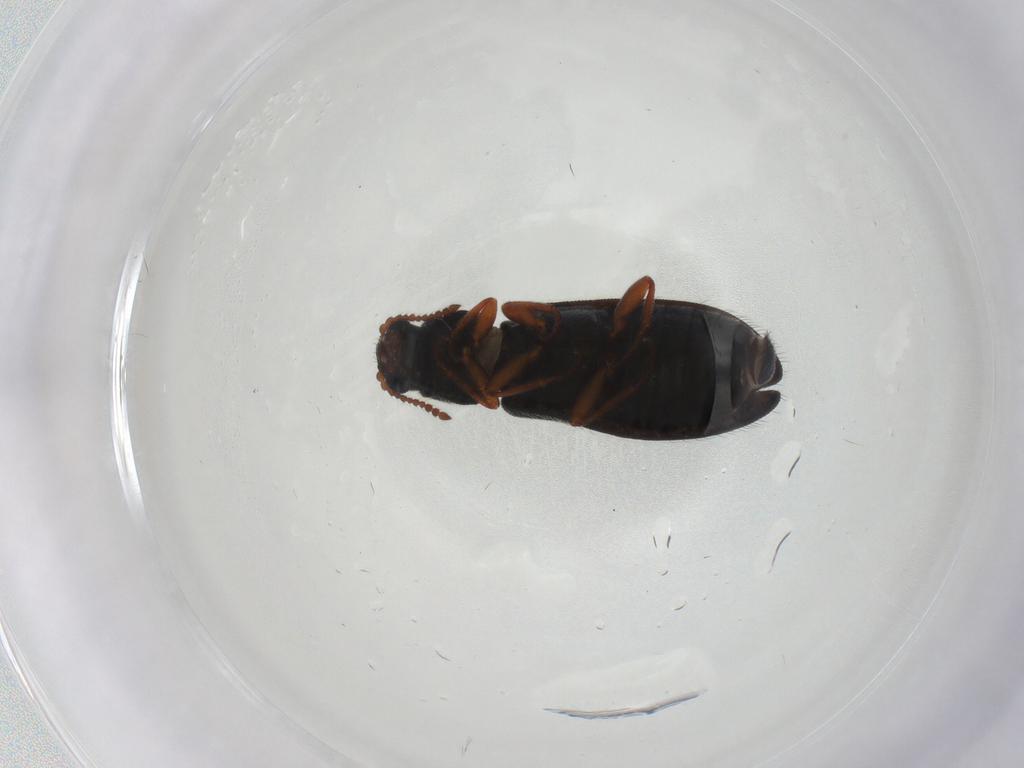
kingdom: Animalia
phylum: Arthropoda
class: Insecta
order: Coleoptera
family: Melyridae
